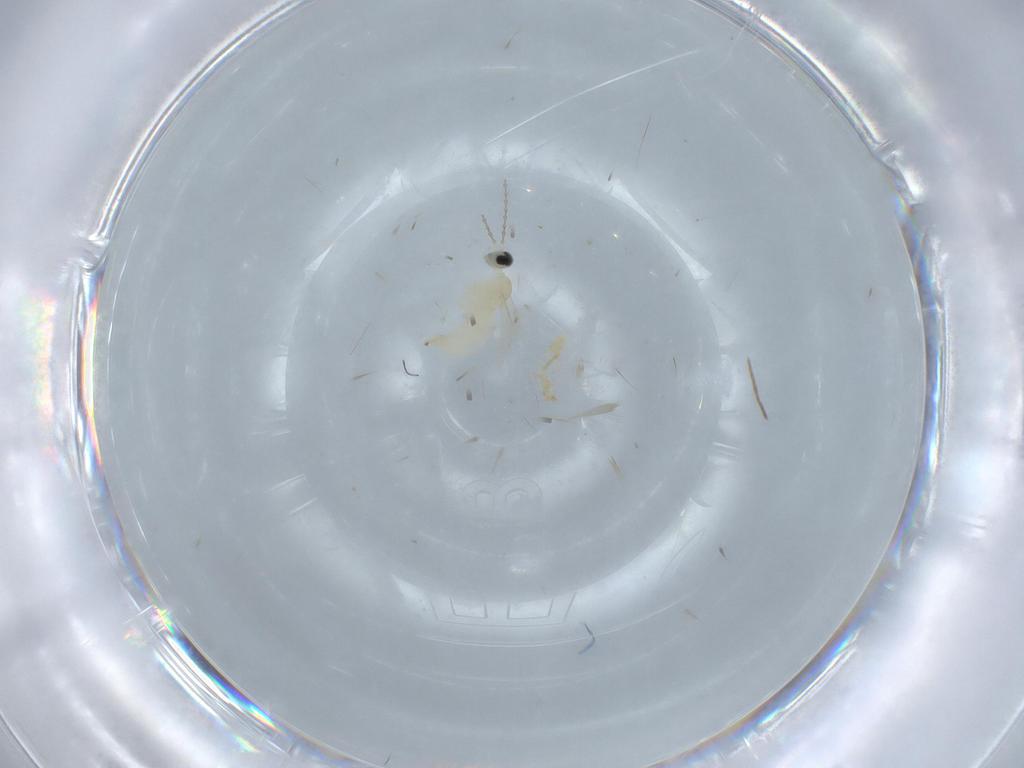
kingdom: Animalia
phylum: Arthropoda
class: Insecta
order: Diptera
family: Cecidomyiidae
